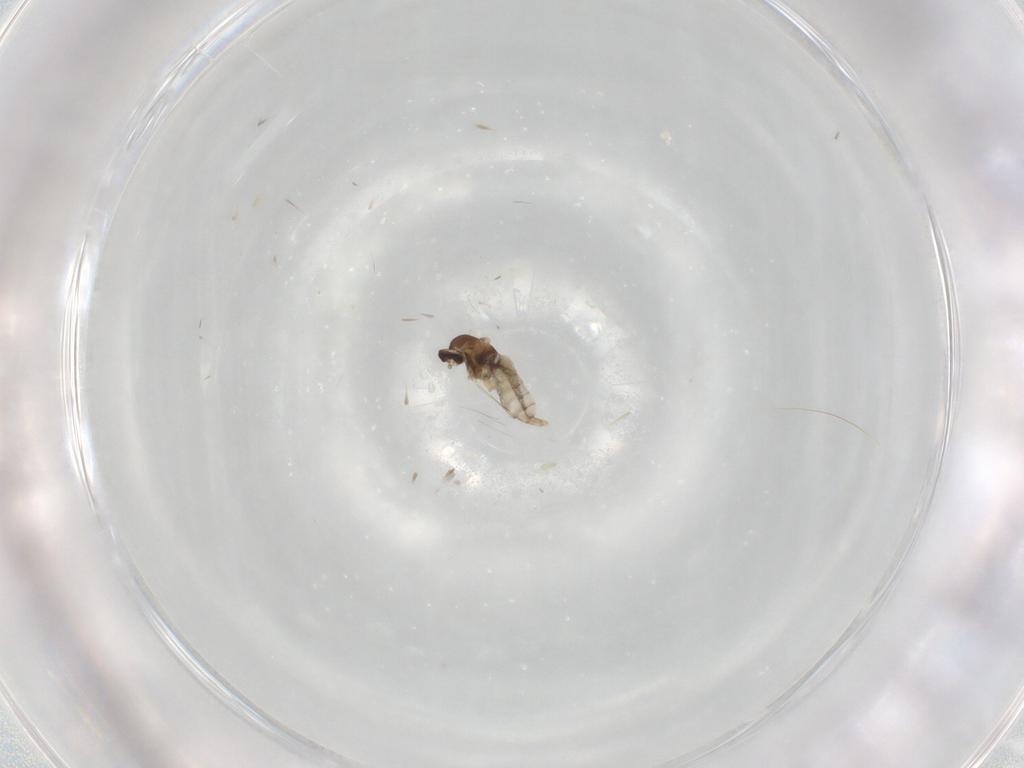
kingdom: Animalia
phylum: Arthropoda
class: Insecta
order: Diptera
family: Cecidomyiidae
